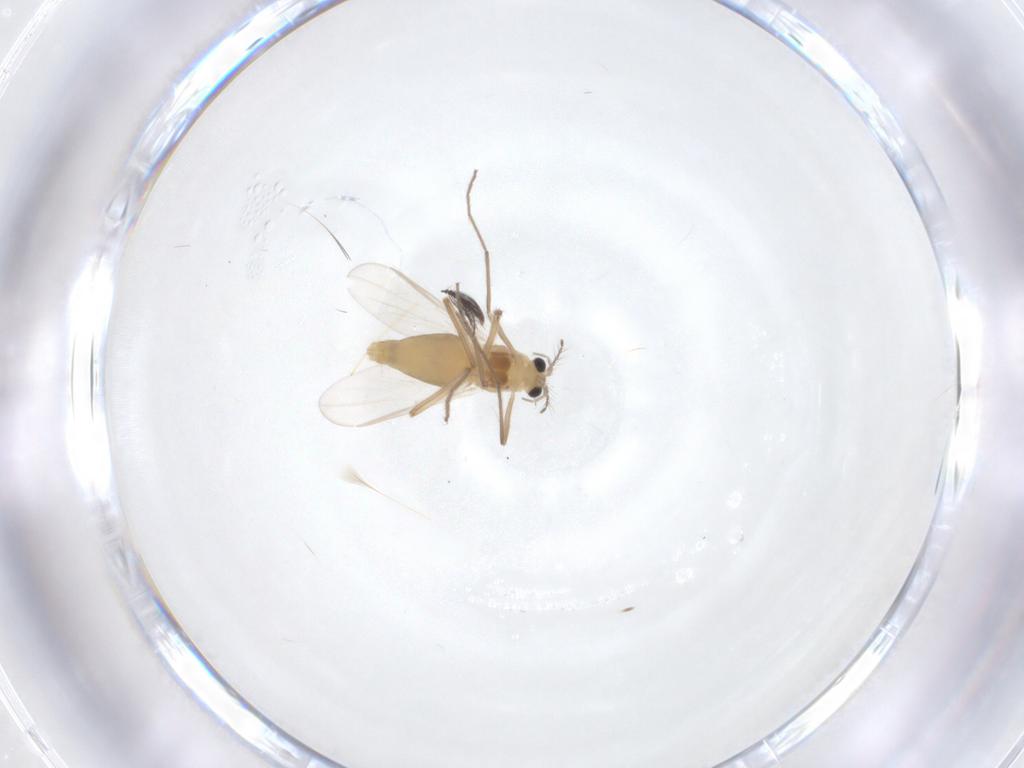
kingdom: Animalia
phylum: Arthropoda
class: Insecta
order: Diptera
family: Chironomidae
